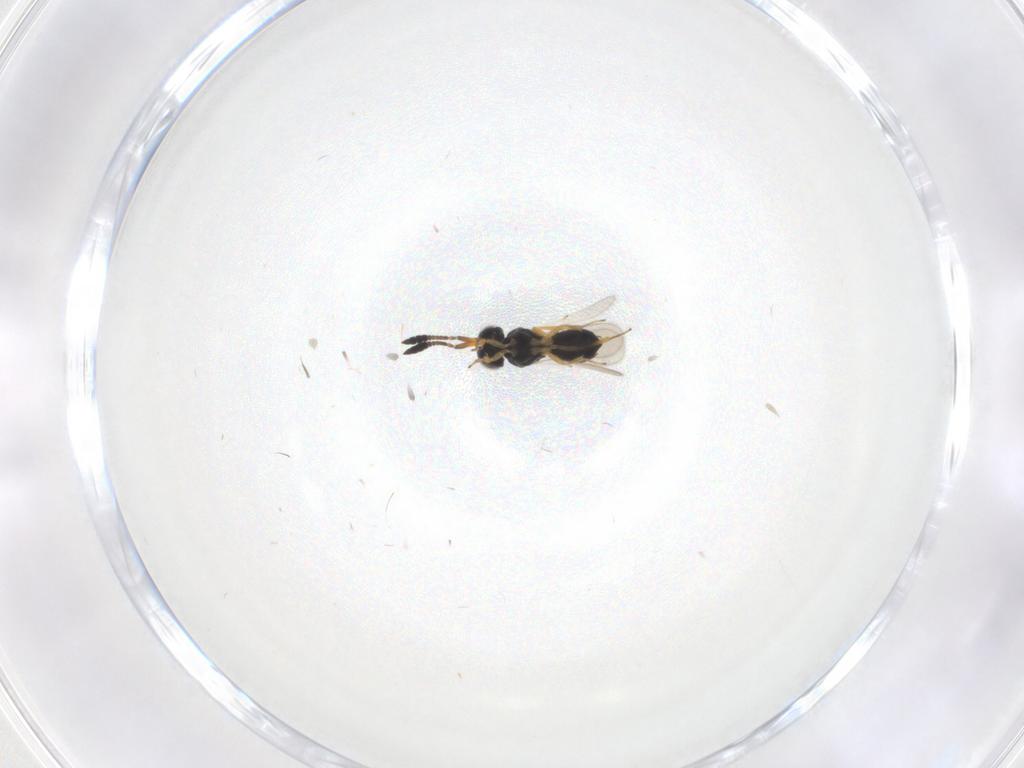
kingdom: Animalia
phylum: Arthropoda
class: Insecta
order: Hymenoptera
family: Scelionidae
